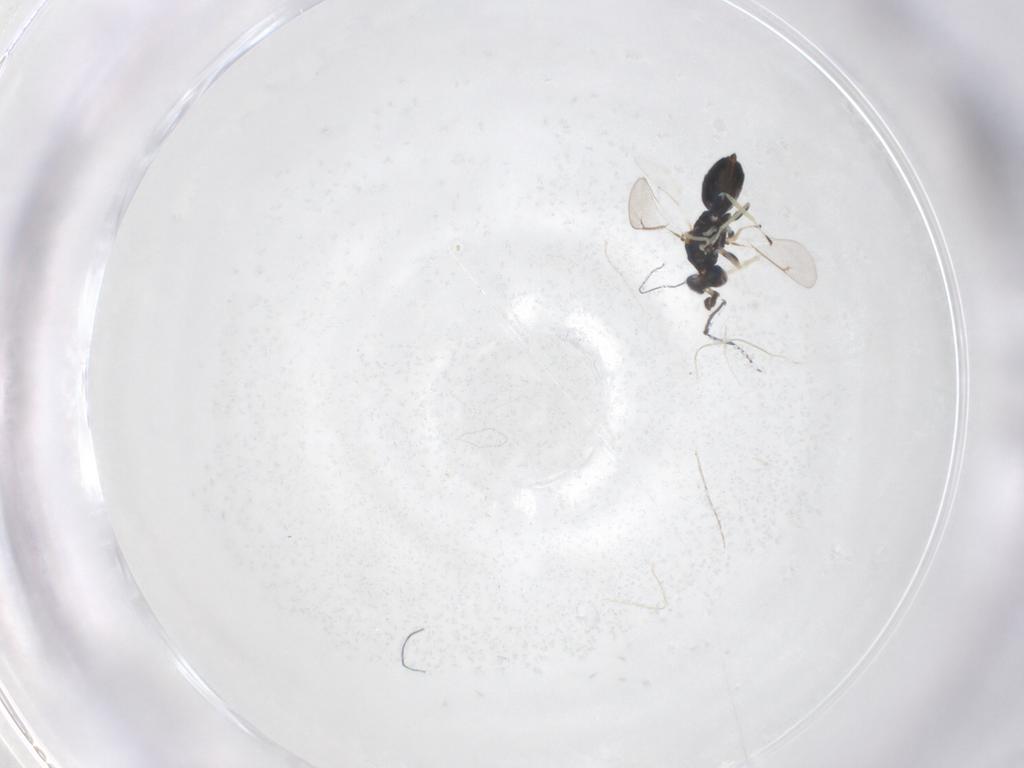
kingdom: Animalia
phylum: Arthropoda
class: Insecta
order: Hymenoptera
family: Eulophidae
